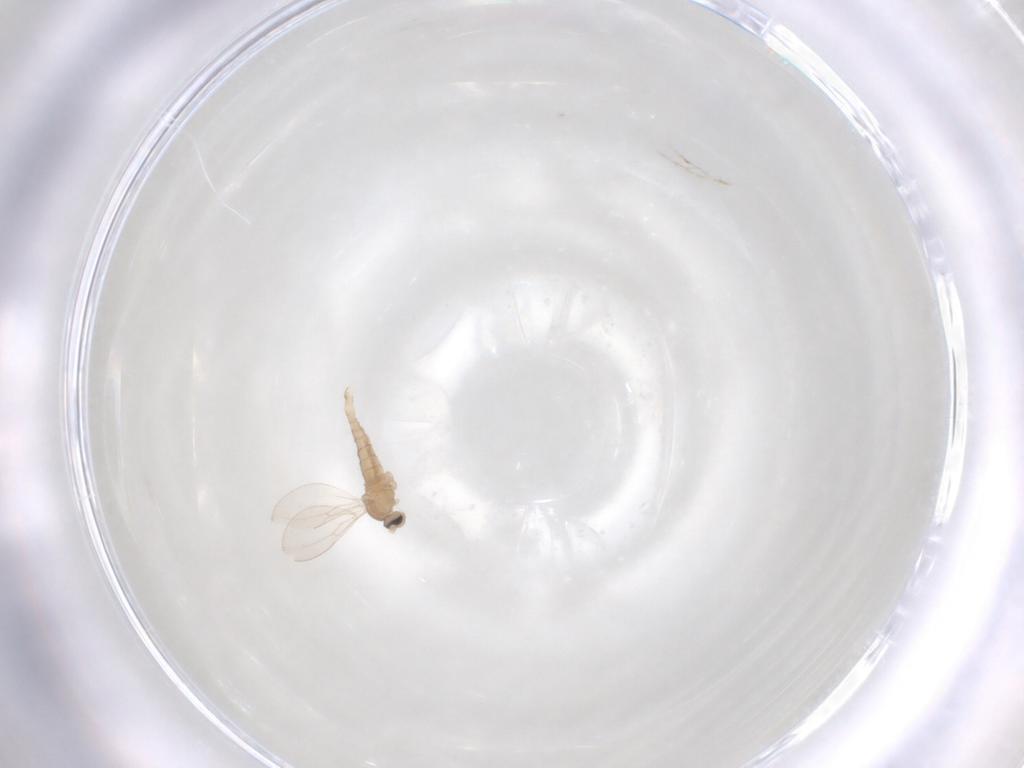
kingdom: Animalia
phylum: Arthropoda
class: Insecta
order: Diptera
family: Cecidomyiidae
